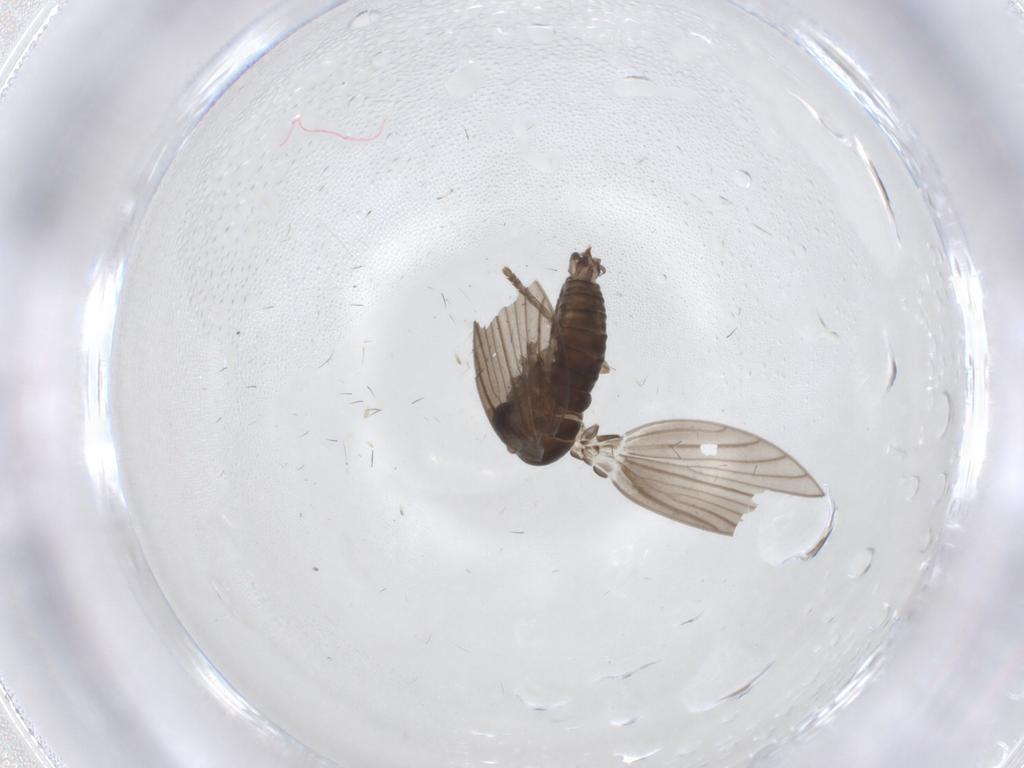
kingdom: Animalia
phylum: Arthropoda
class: Insecta
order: Diptera
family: Psychodidae
